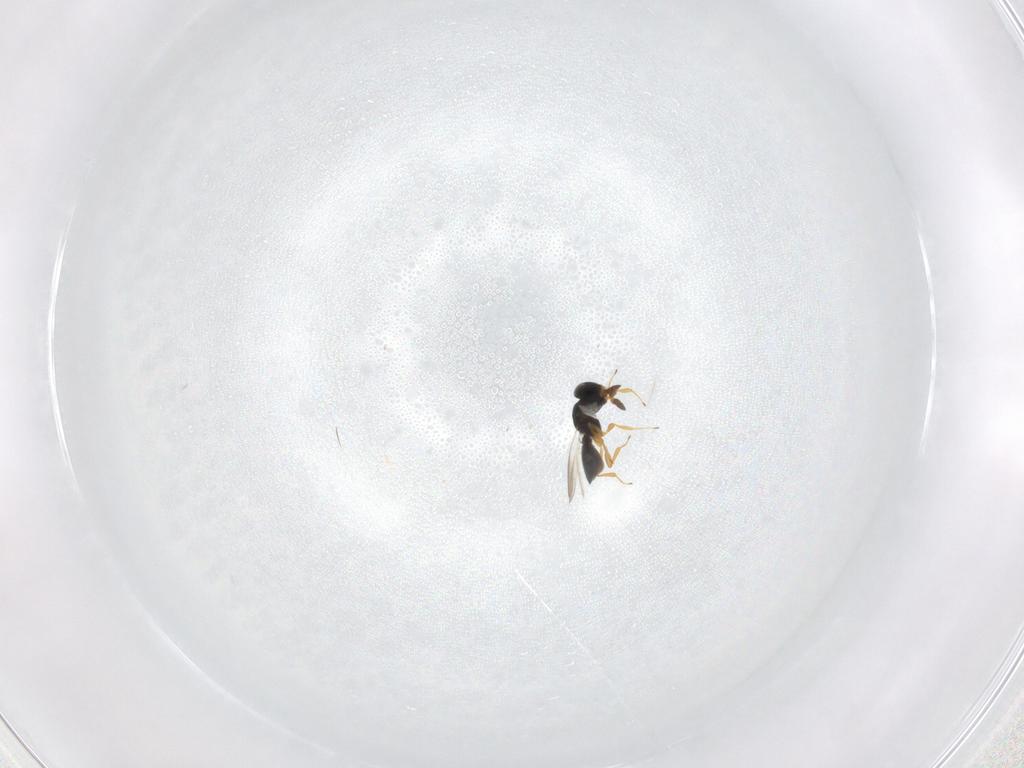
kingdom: Animalia
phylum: Arthropoda
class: Insecta
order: Hymenoptera
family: Platygastridae
